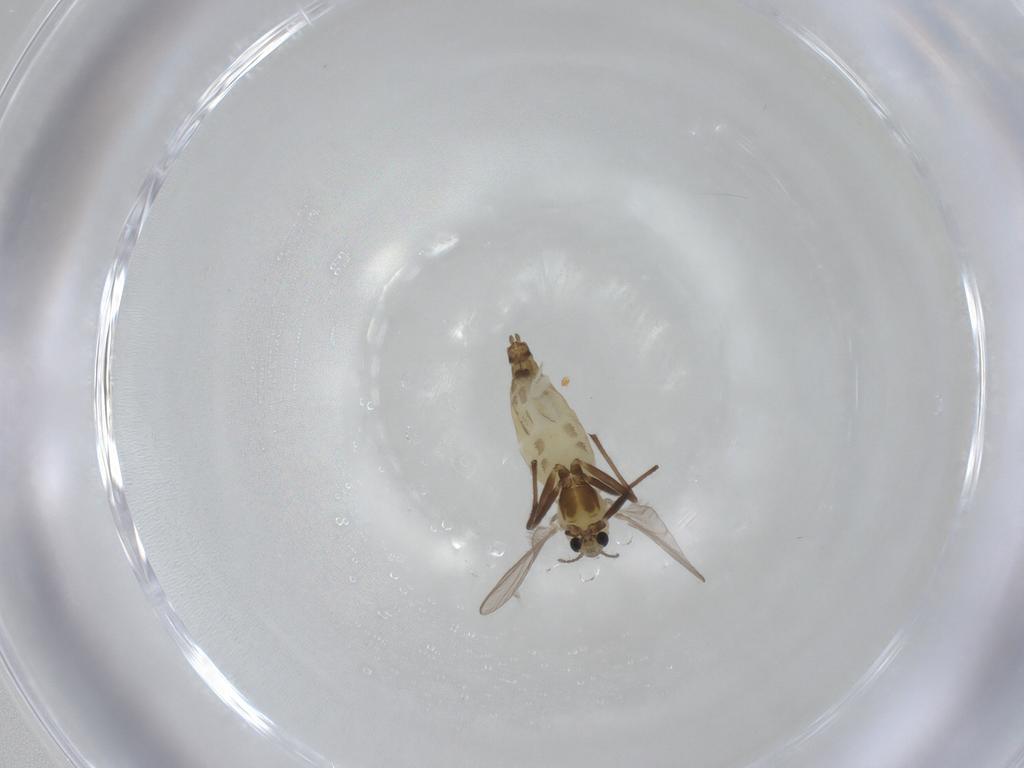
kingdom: Animalia
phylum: Arthropoda
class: Insecta
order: Diptera
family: Chironomidae
